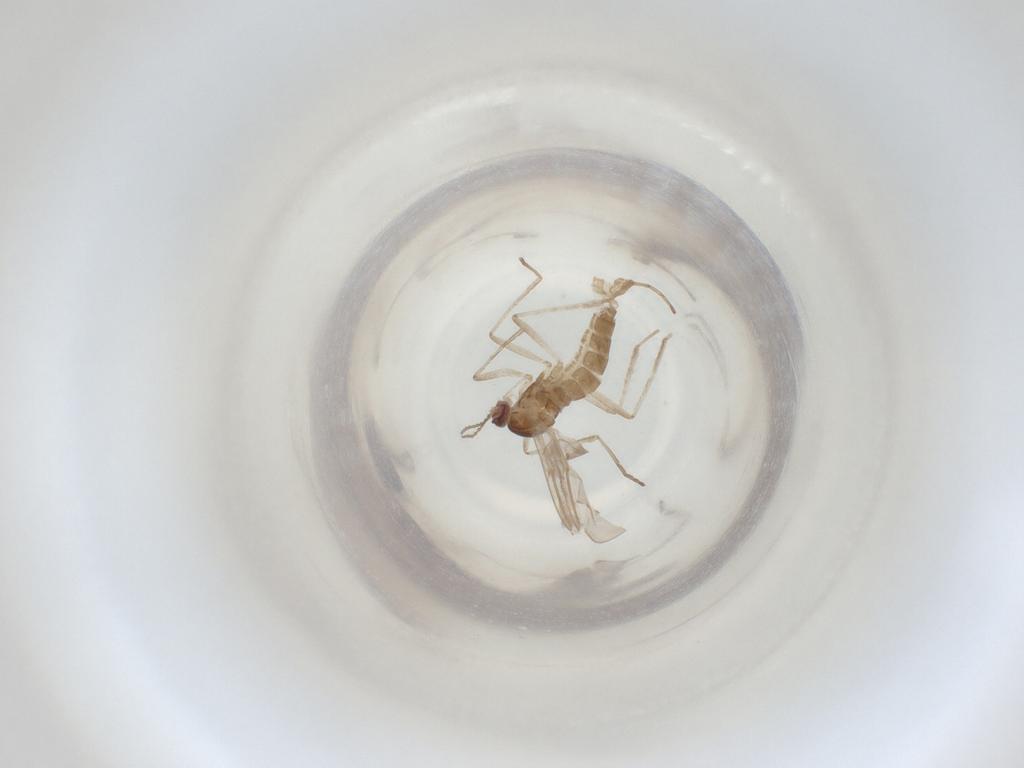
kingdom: Animalia
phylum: Arthropoda
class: Insecta
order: Diptera
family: Cecidomyiidae
